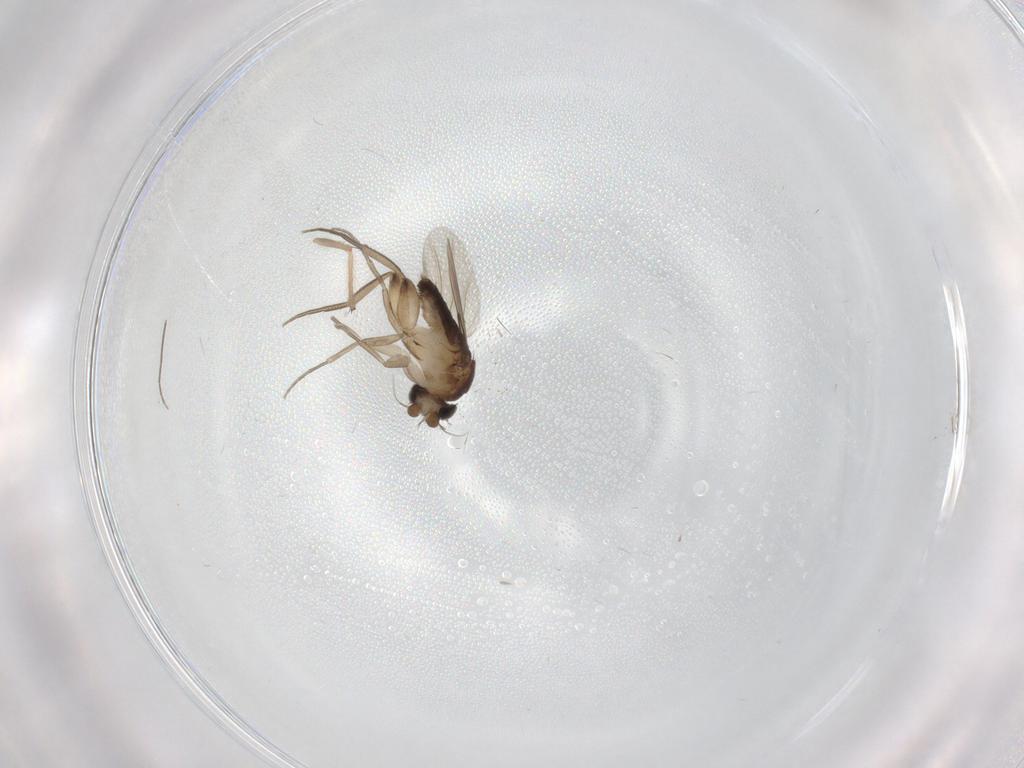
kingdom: Animalia
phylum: Arthropoda
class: Insecta
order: Diptera
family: Phoridae
